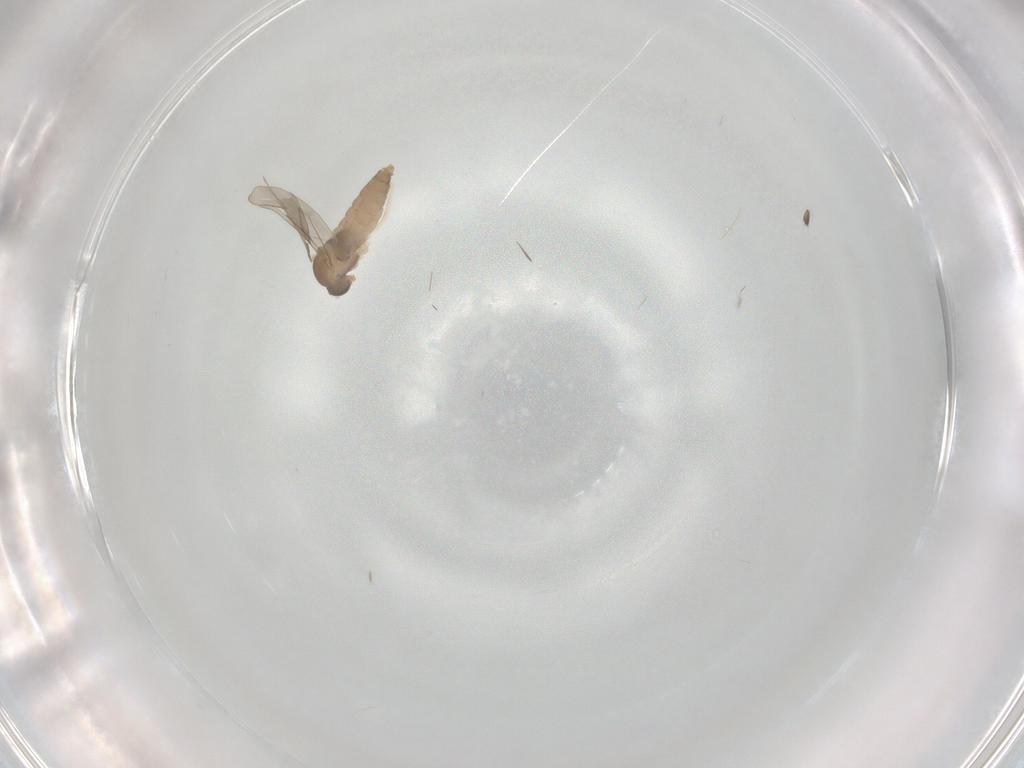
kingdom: Animalia
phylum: Arthropoda
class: Insecta
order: Diptera
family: Cecidomyiidae
